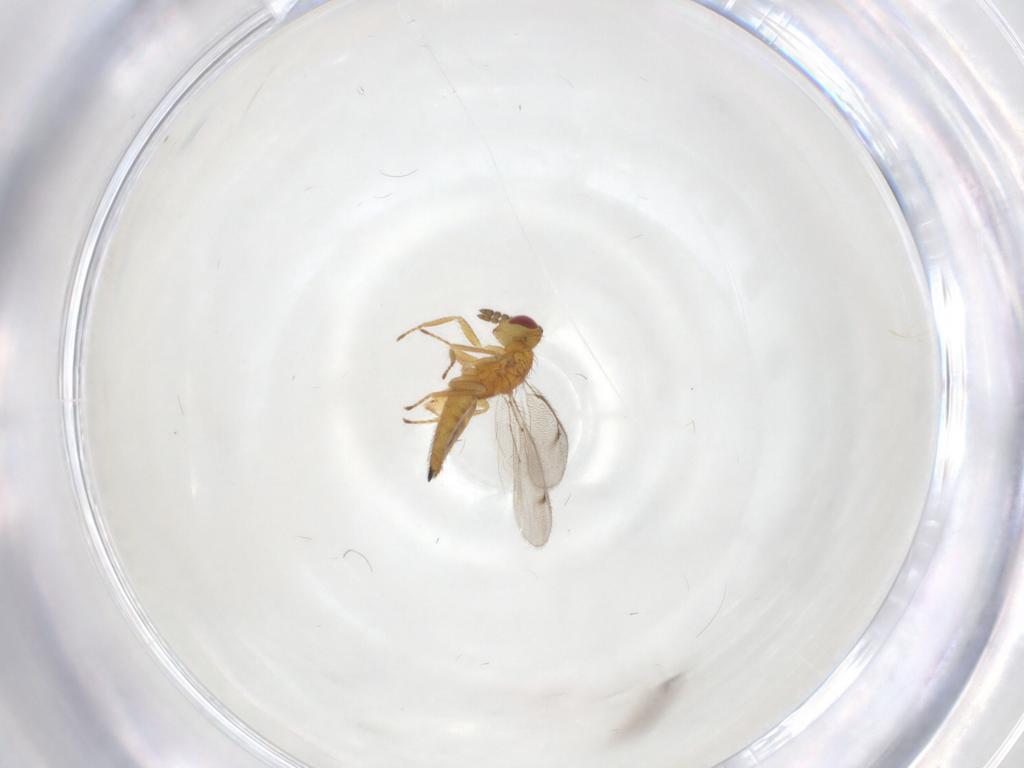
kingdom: Animalia
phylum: Arthropoda
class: Insecta
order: Hymenoptera
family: Eulophidae
